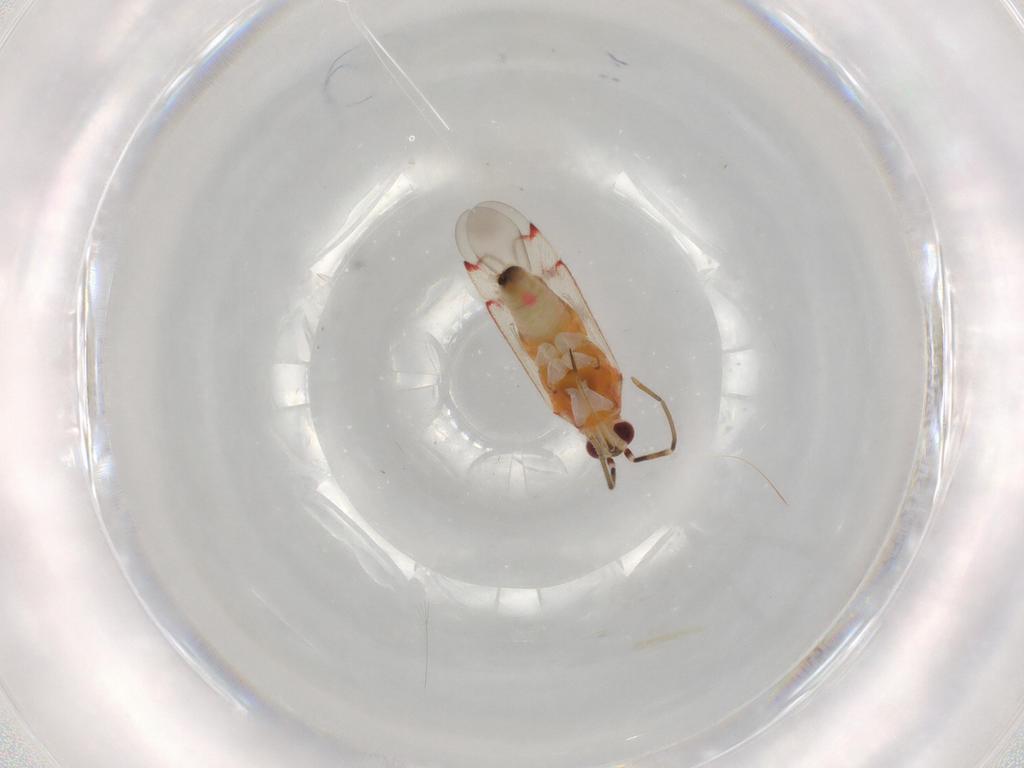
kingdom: Animalia
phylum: Arthropoda
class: Insecta
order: Hemiptera
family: Miridae
